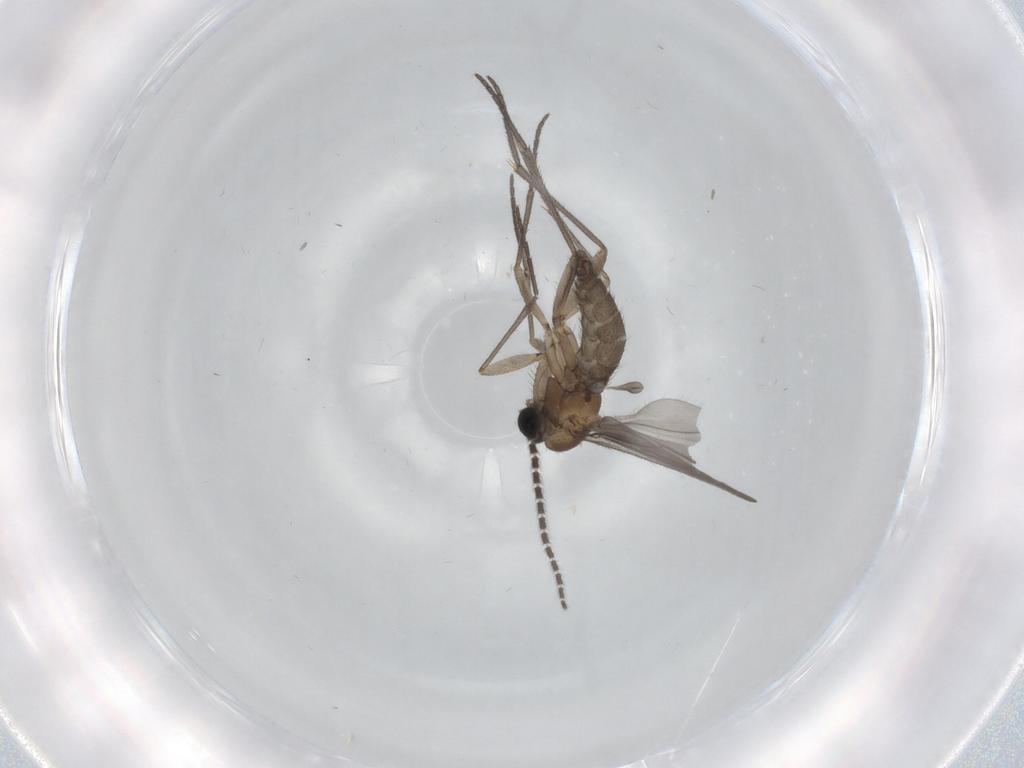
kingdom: Animalia
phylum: Arthropoda
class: Insecta
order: Diptera
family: Sciaridae
